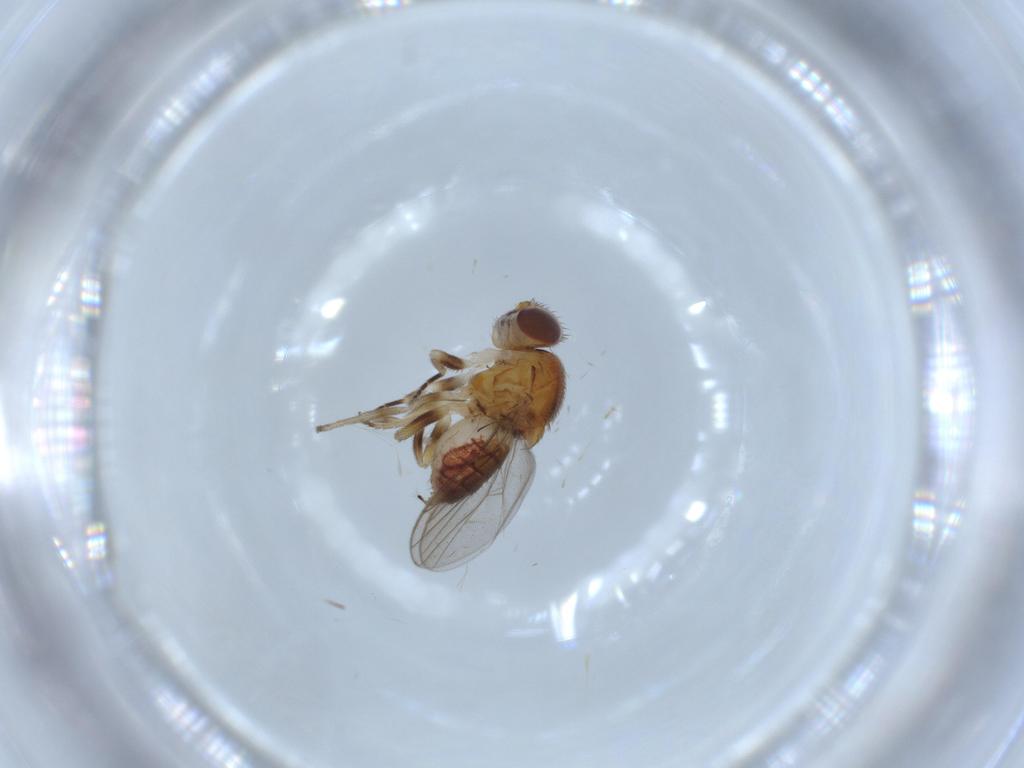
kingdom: Animalia
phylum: Arthropoda
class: Insecta
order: Diptera
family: Chloropidae
